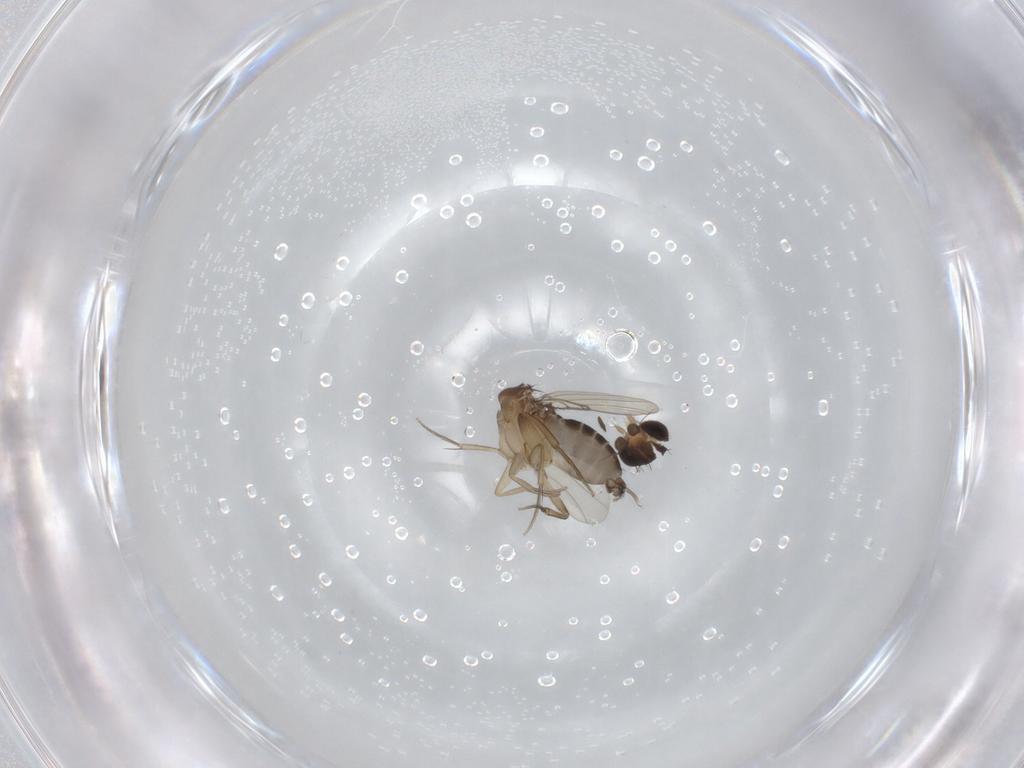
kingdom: Animalia
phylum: Arthropoda
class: Insecta
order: Diptera
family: Phoridae
